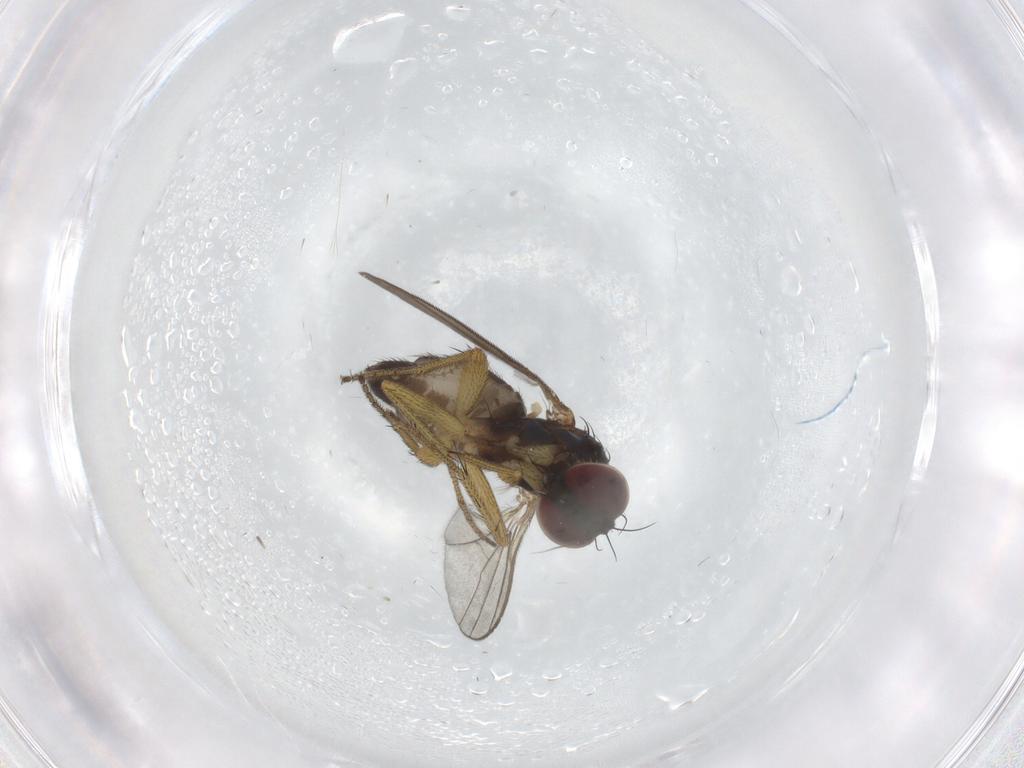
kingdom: Animalia
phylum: Arthropoda
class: Insecta
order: Diptera
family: Dolichopodidae
